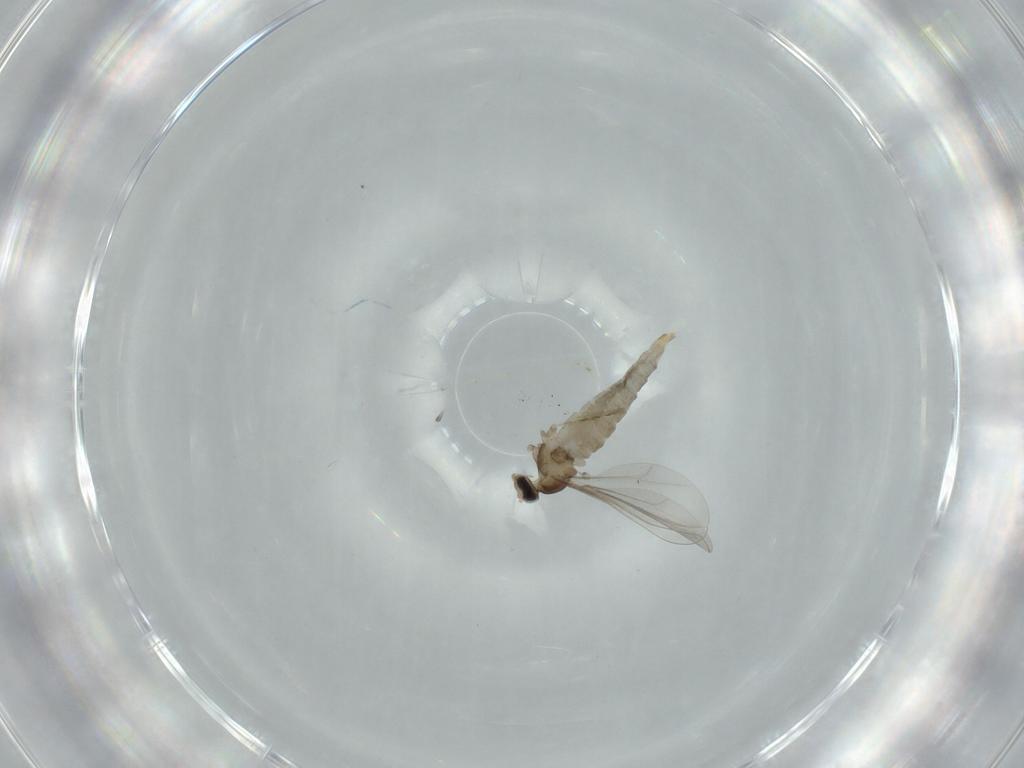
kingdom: Animalia
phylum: Arthropoda
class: Insecta
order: Diptera
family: Cecidomyiidae
